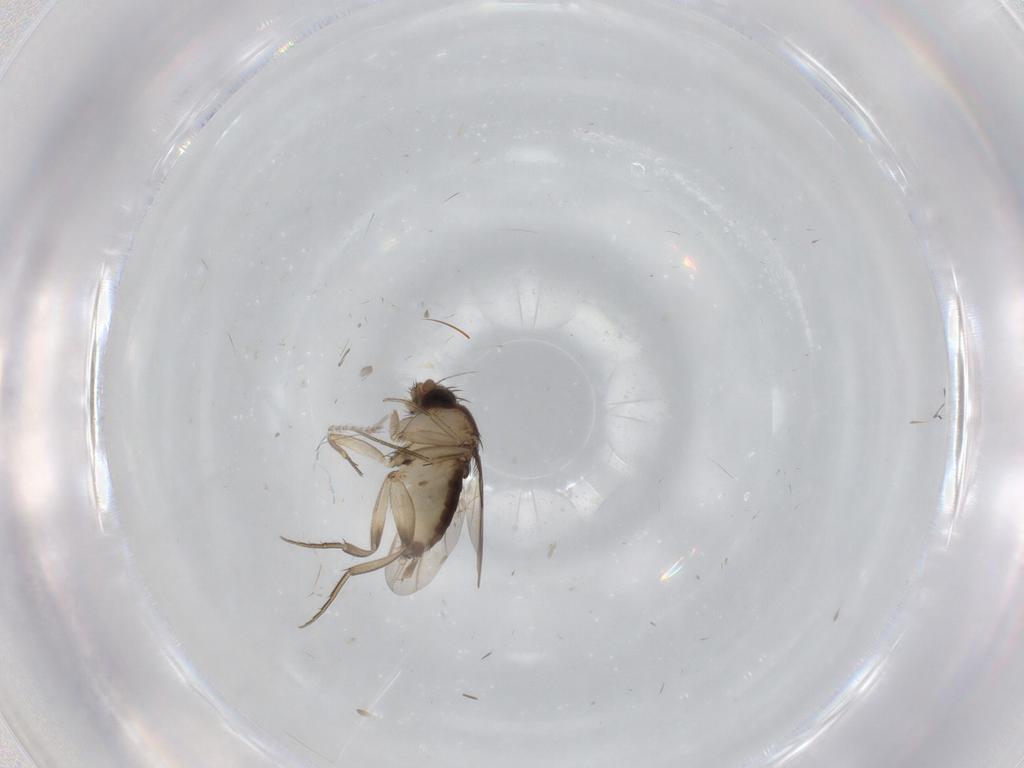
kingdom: Animalia
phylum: Arthropoda
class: Insecta
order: Diptera
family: Phoridae
